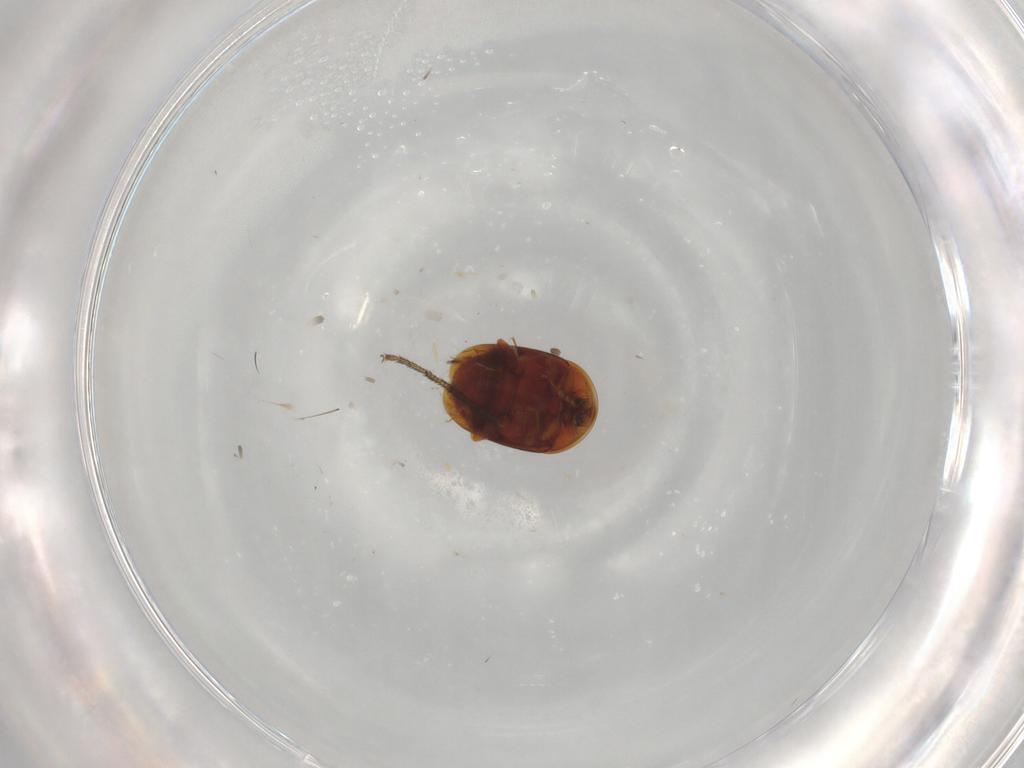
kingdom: Animalia
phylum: Arthropoda
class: Insecta
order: Coleoptera
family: Corylophidae
